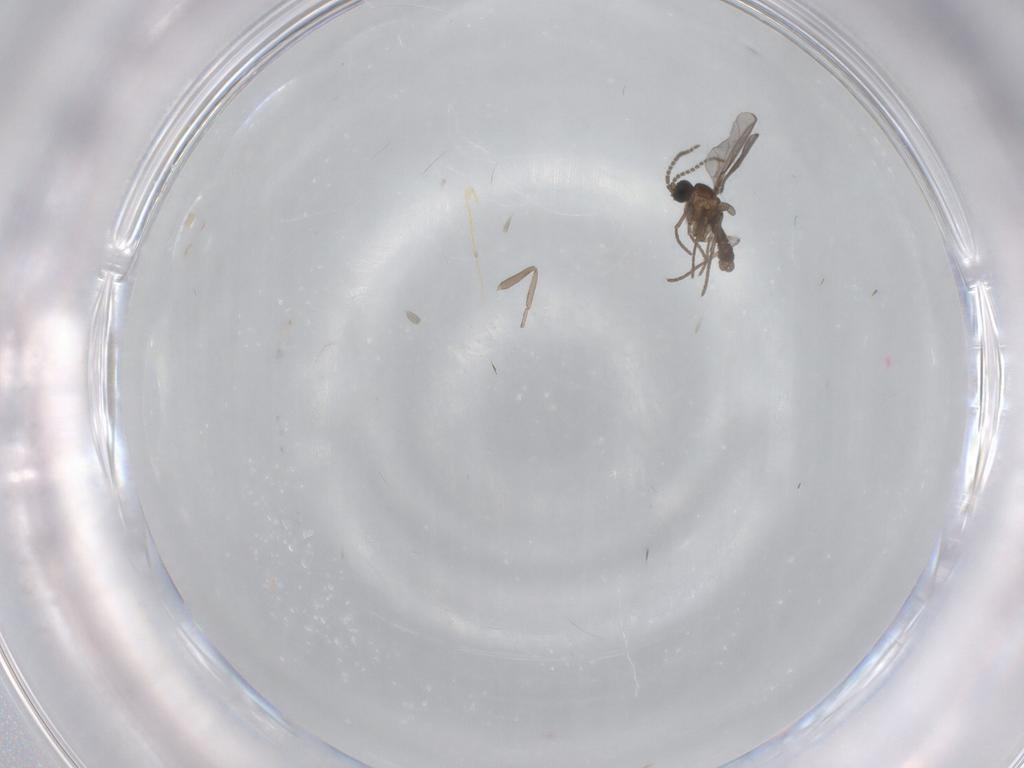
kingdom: Animalia
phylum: Arthropoda
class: Insecta
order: Diptera
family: Sciaridae
